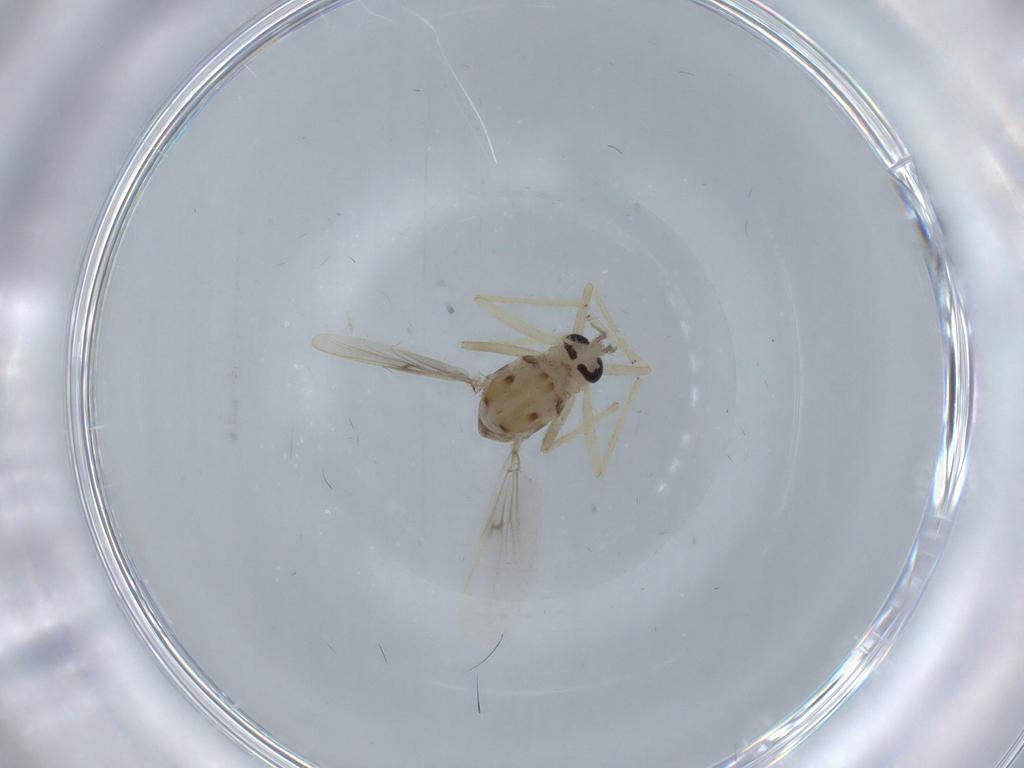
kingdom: Animalia
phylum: Arthropoda
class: Insecta
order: Diptera
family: Chironomidae
